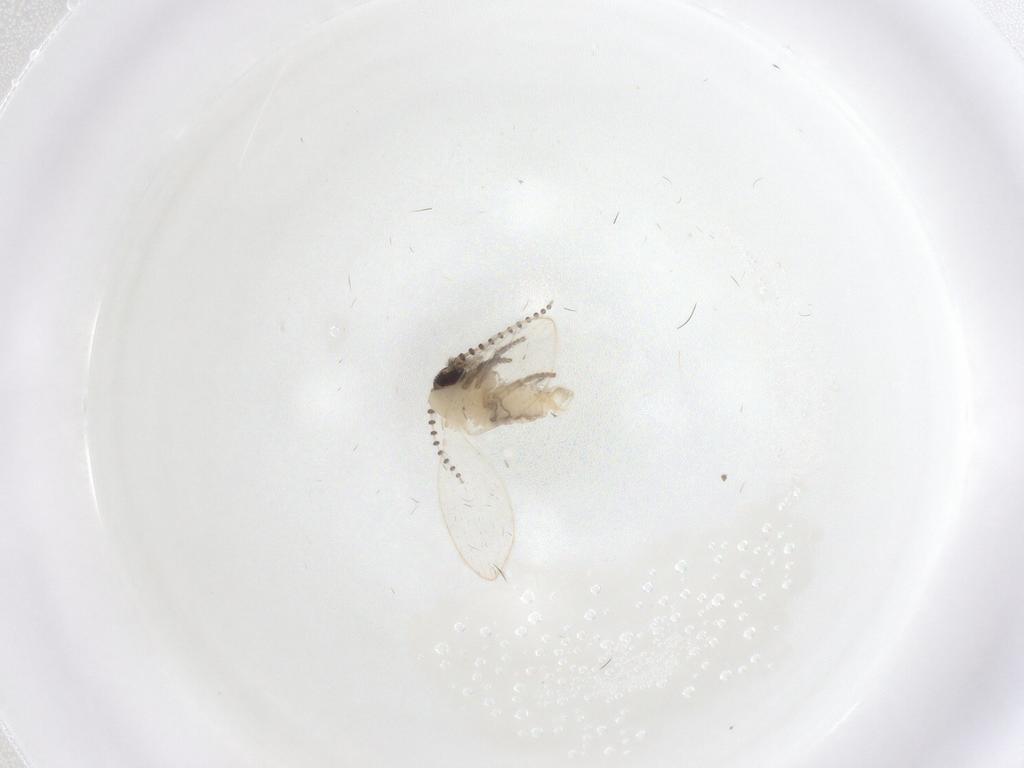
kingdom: Animalia
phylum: Arthropoda
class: Insecta
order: Diptera
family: Psychodidae
